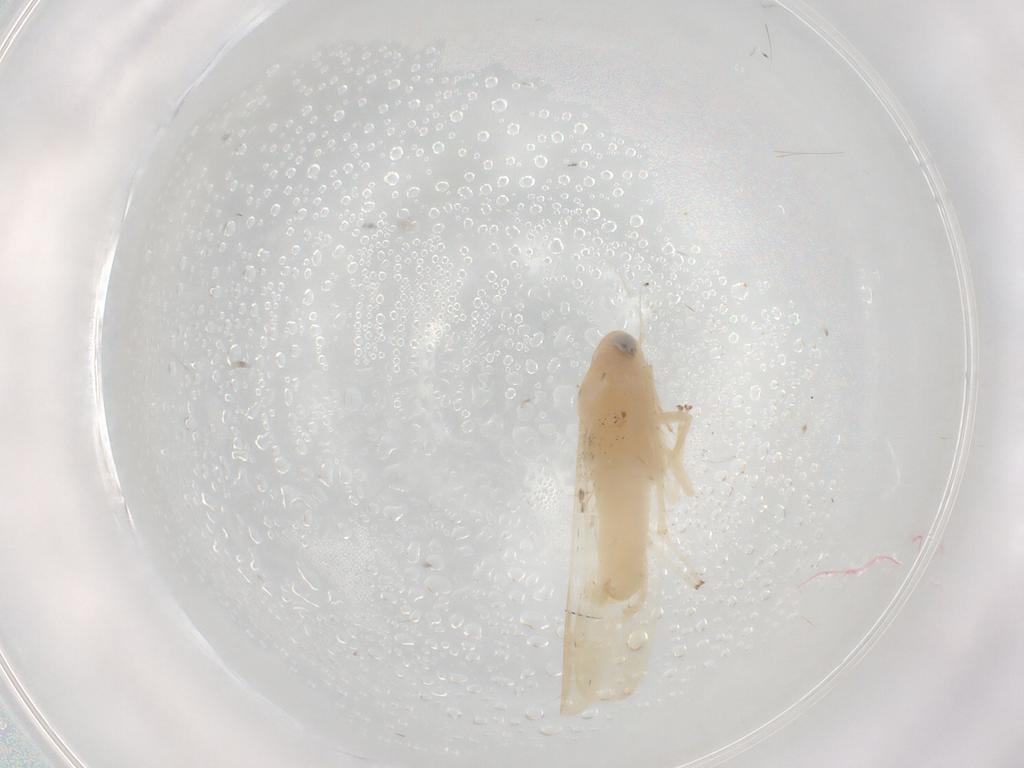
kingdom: Animalia
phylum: Arthropoda
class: Insecta
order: Hemiptera
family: Cicadellidae
